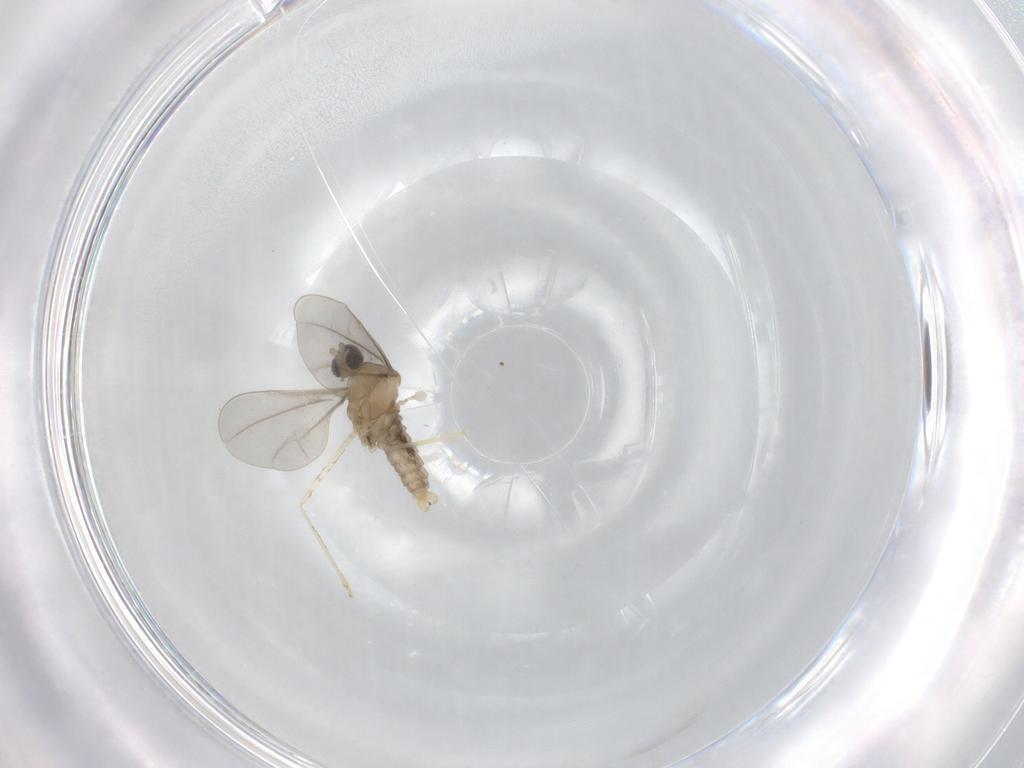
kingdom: Animalia
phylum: Arthropoda
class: Insecta
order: Diptera
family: Cecidomyiidae
